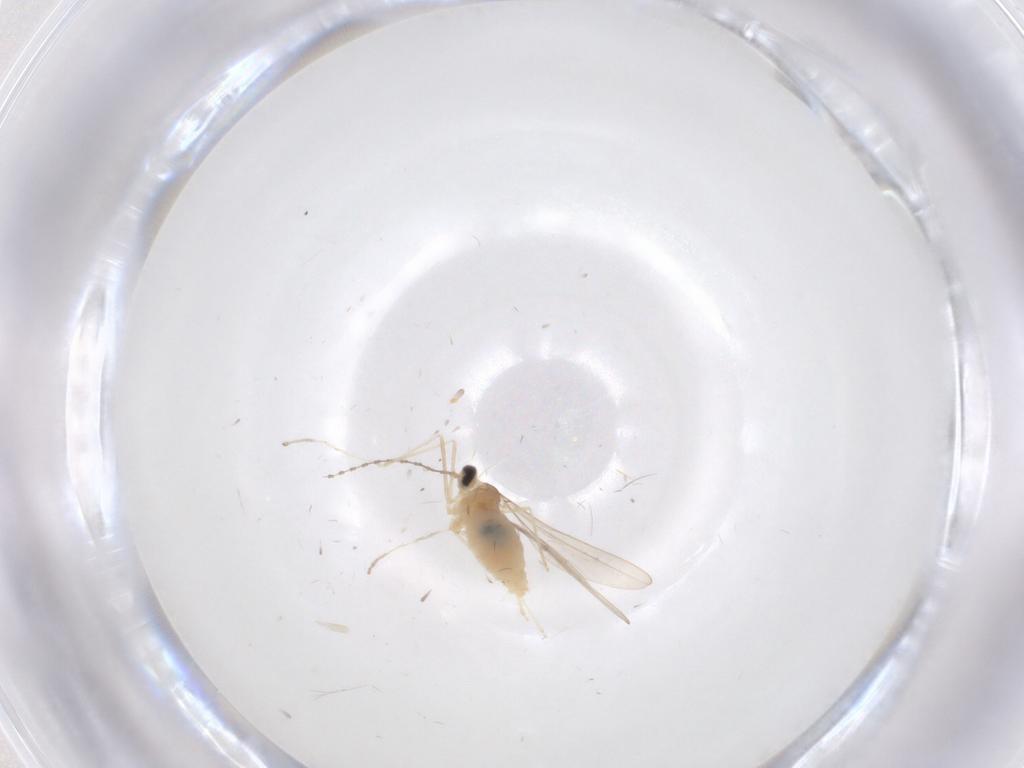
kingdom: Animalia
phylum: Arthropoda
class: Insecta
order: Diptera
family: Cecidomyiidae
